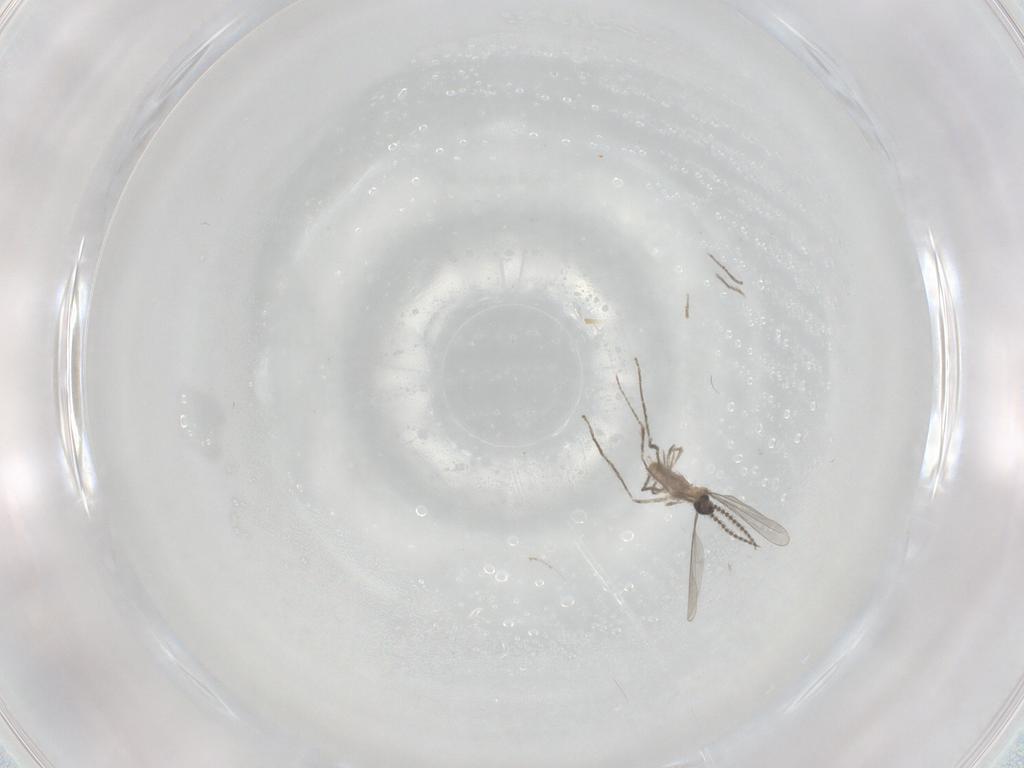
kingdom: Animalia
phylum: Arthropoda
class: Insecta
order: Diptera
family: Cecidomyiidae
